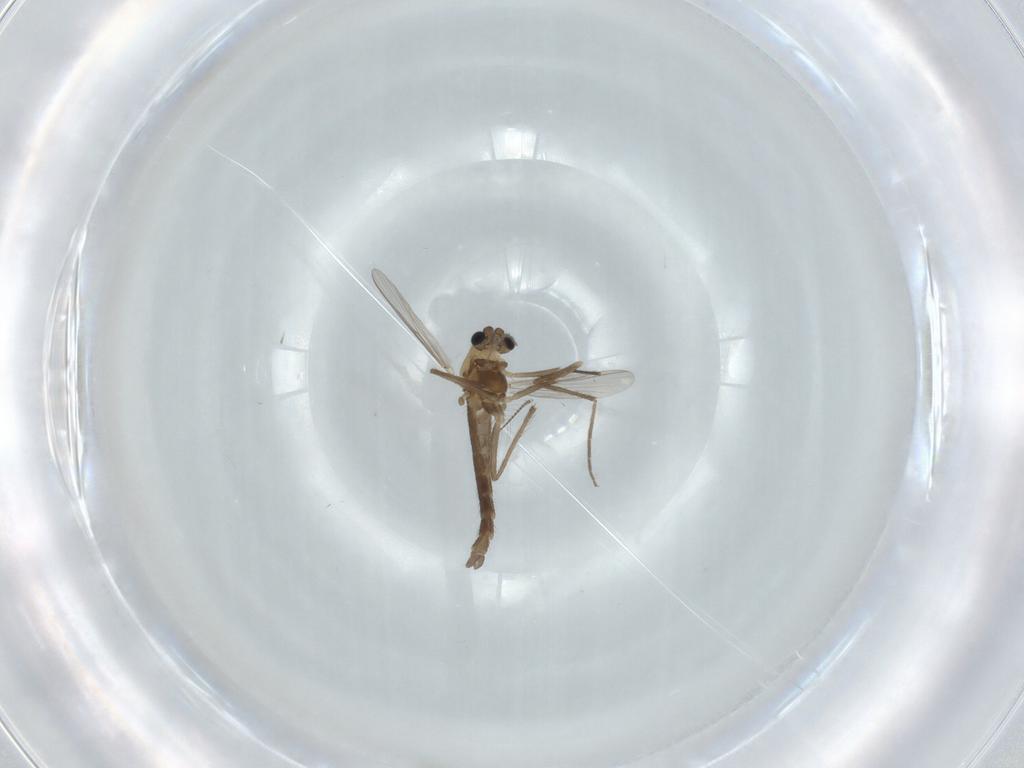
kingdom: Animalia
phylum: Arthropoda
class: Insecta
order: Diptera
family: Chironomidae
